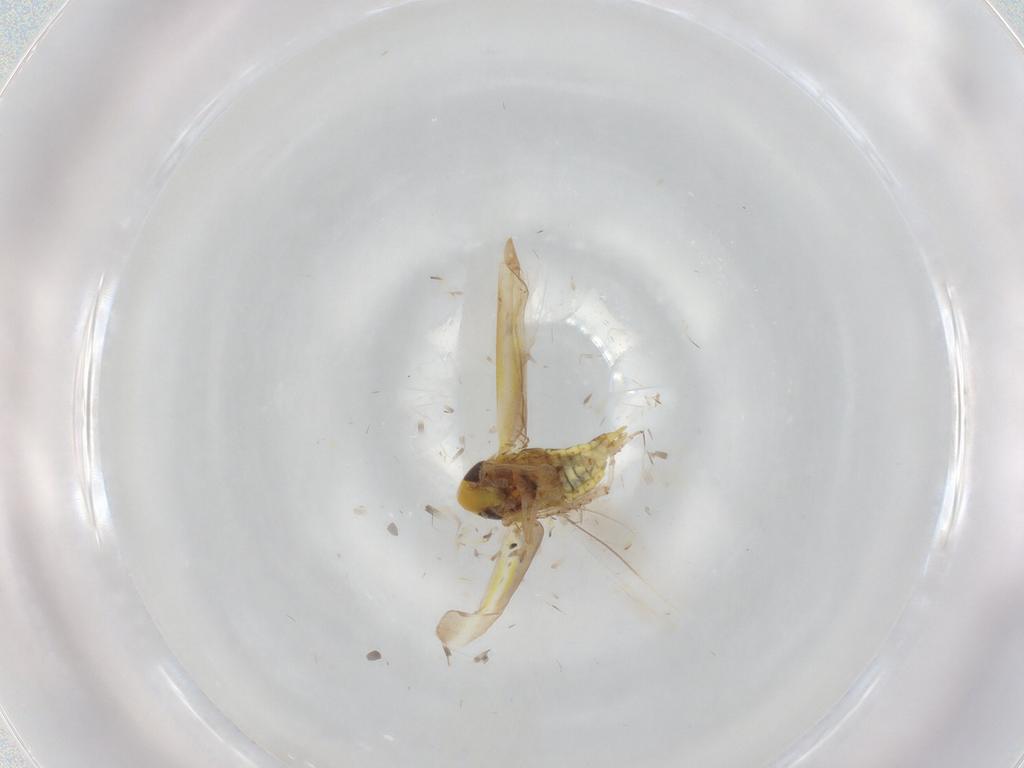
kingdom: Animalia
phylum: Arthropoda
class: Insecta
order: Hemiptera
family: Cicadellidae
